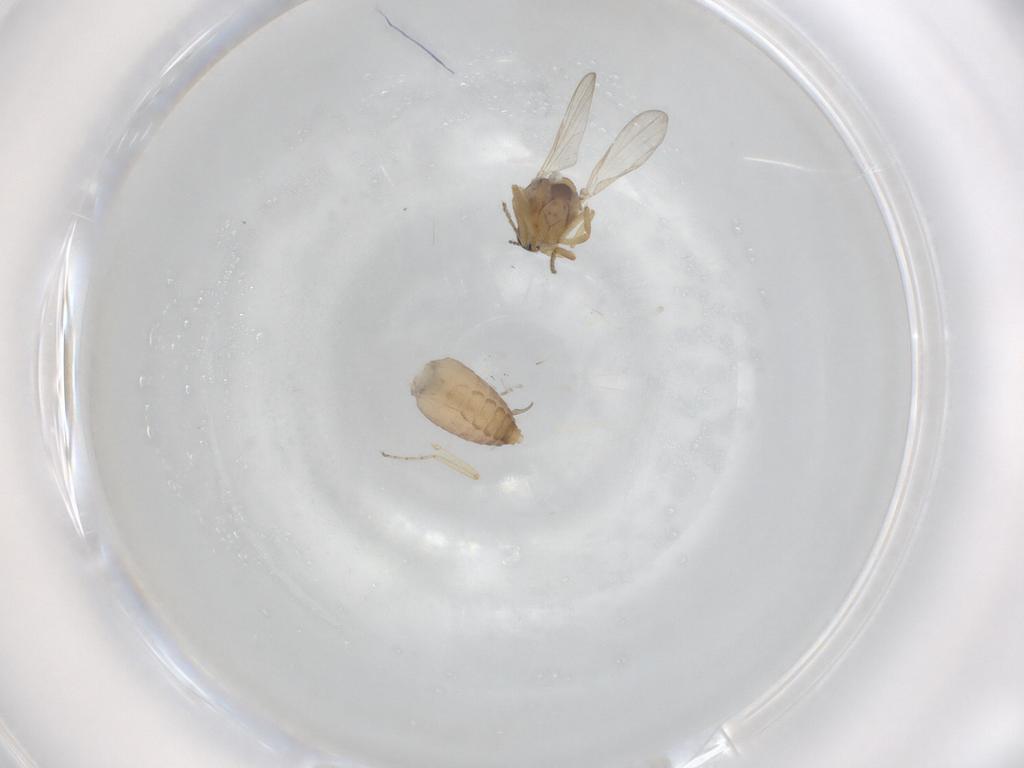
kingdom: Animalia
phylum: Arthropoda
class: Insecta
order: Diptera
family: Ceratopogonidae
